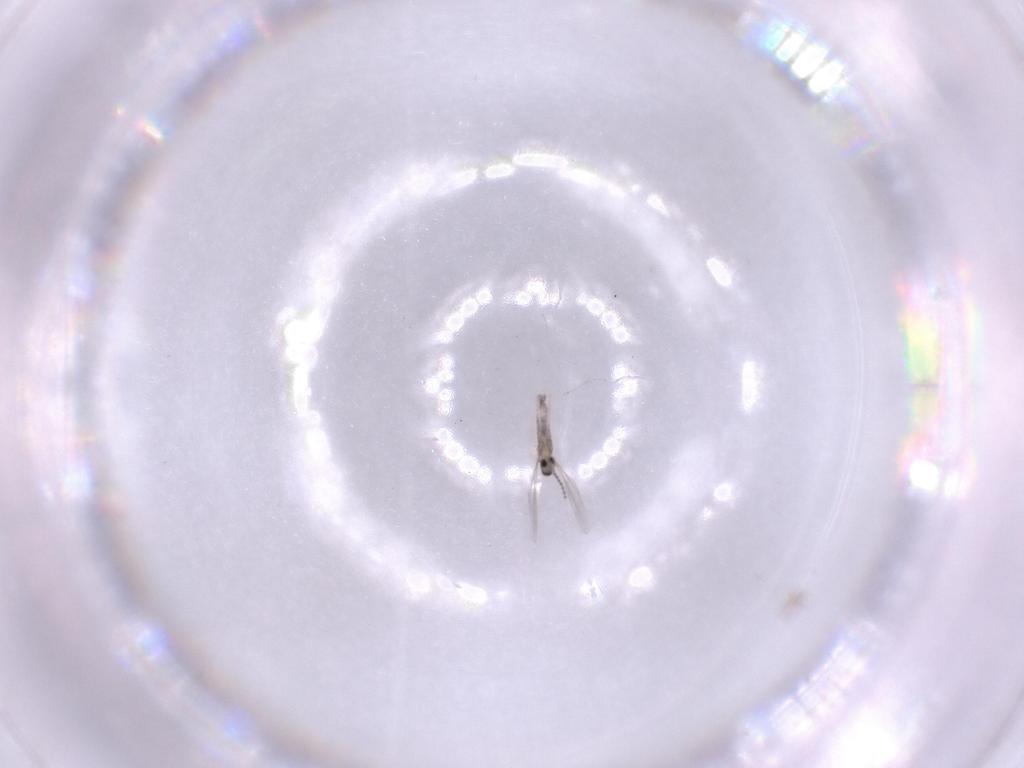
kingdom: Animalia
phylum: Arthropoda
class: Insecta
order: Diptera
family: Cecidomyiidae
